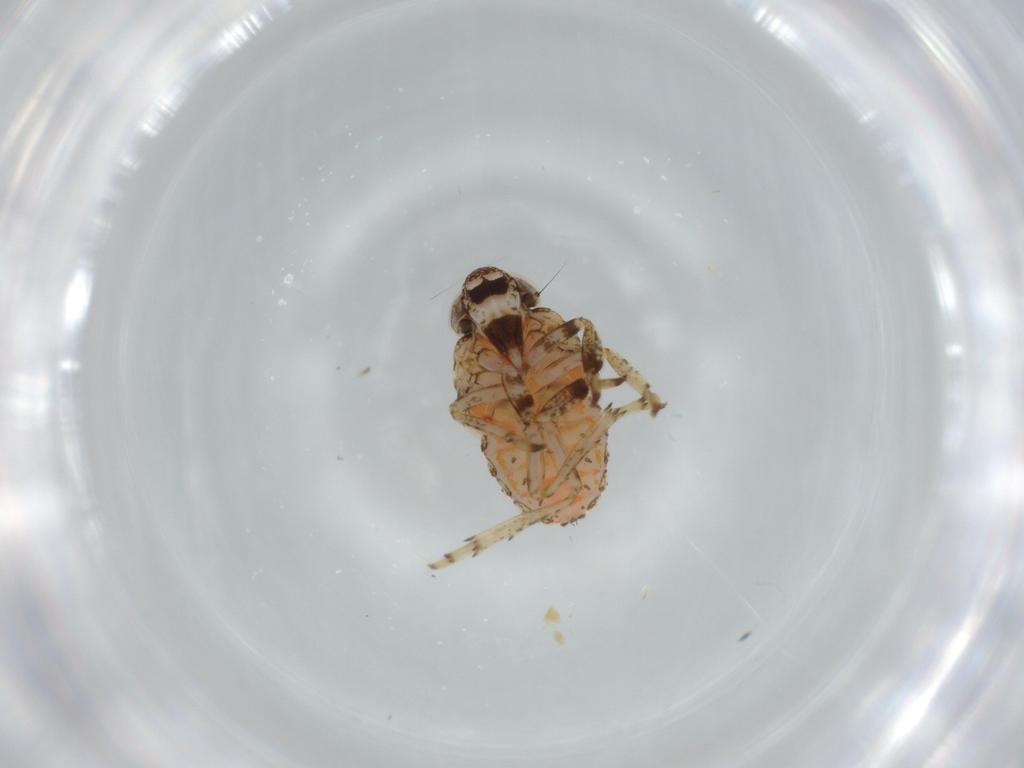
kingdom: Animalia
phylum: Arthropoda
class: Insecta
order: Hemiptera
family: Issidae
